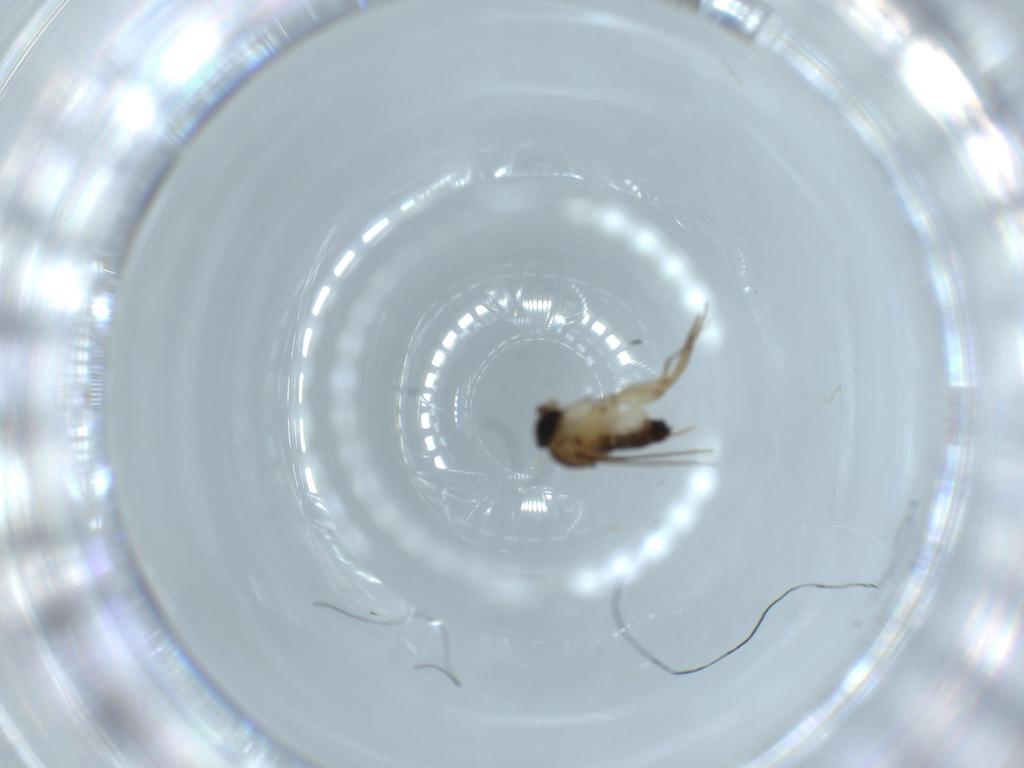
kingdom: Animalia
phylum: Arthropoda
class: Insecta
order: Diptera
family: Phoridae
